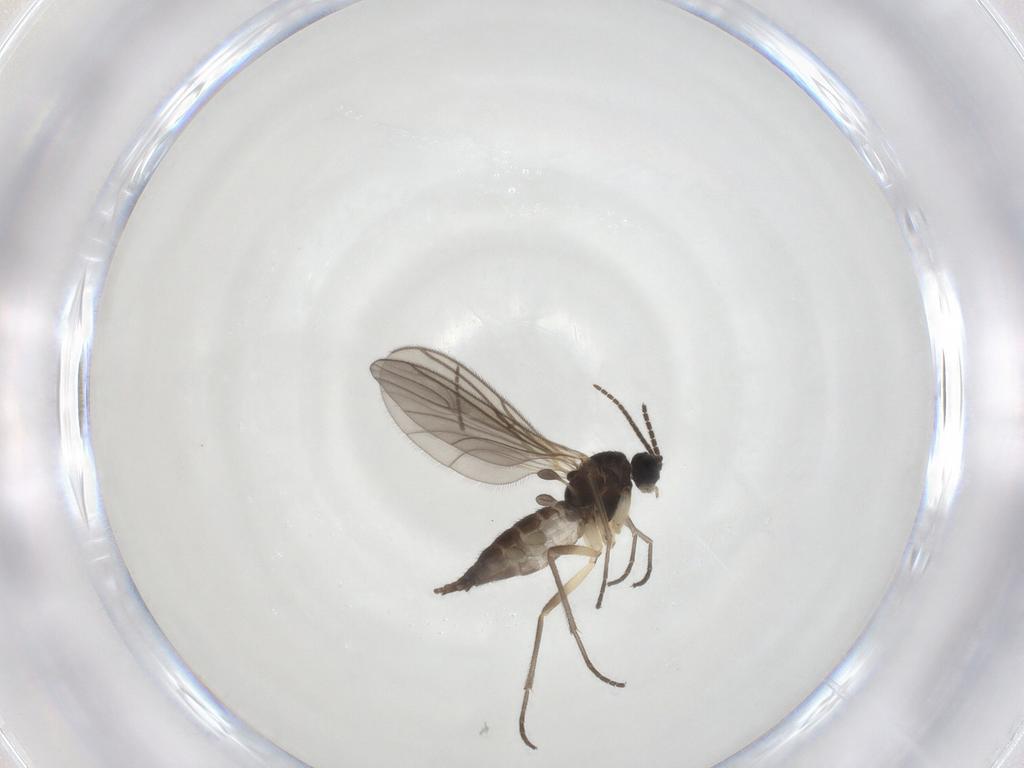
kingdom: Animalia
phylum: Arthropoda
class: Insecta
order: Diptera
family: Sciaridae
